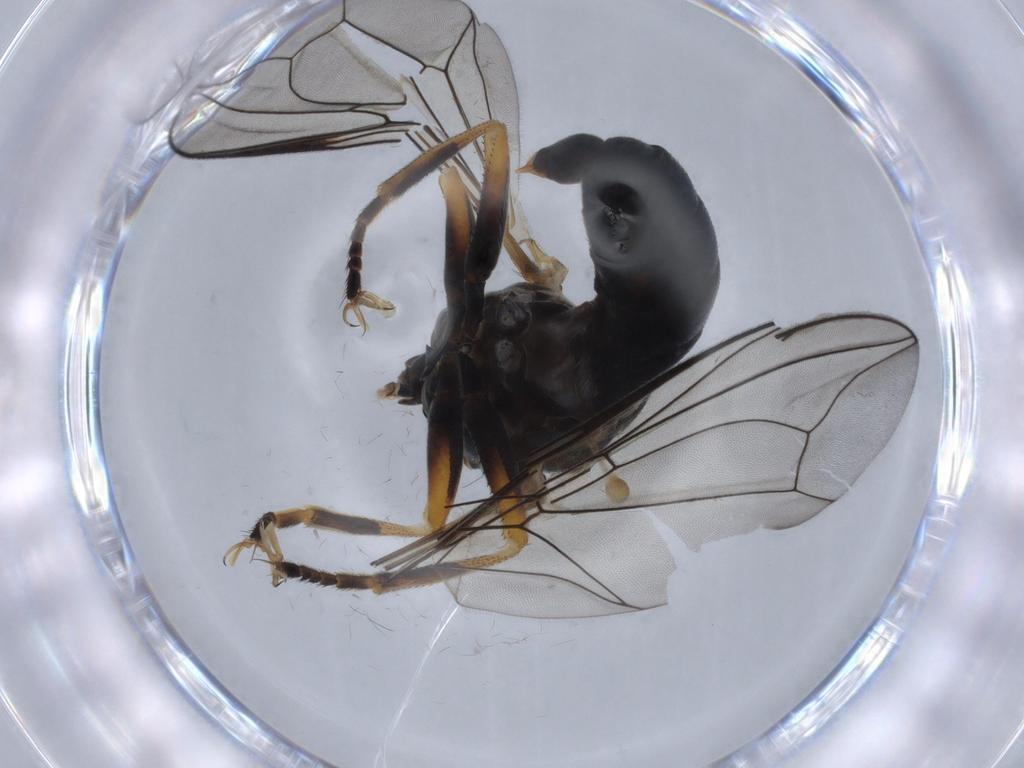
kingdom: Animalia
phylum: Arthropoda
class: Insecta
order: Diptera
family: Pipunculidae
